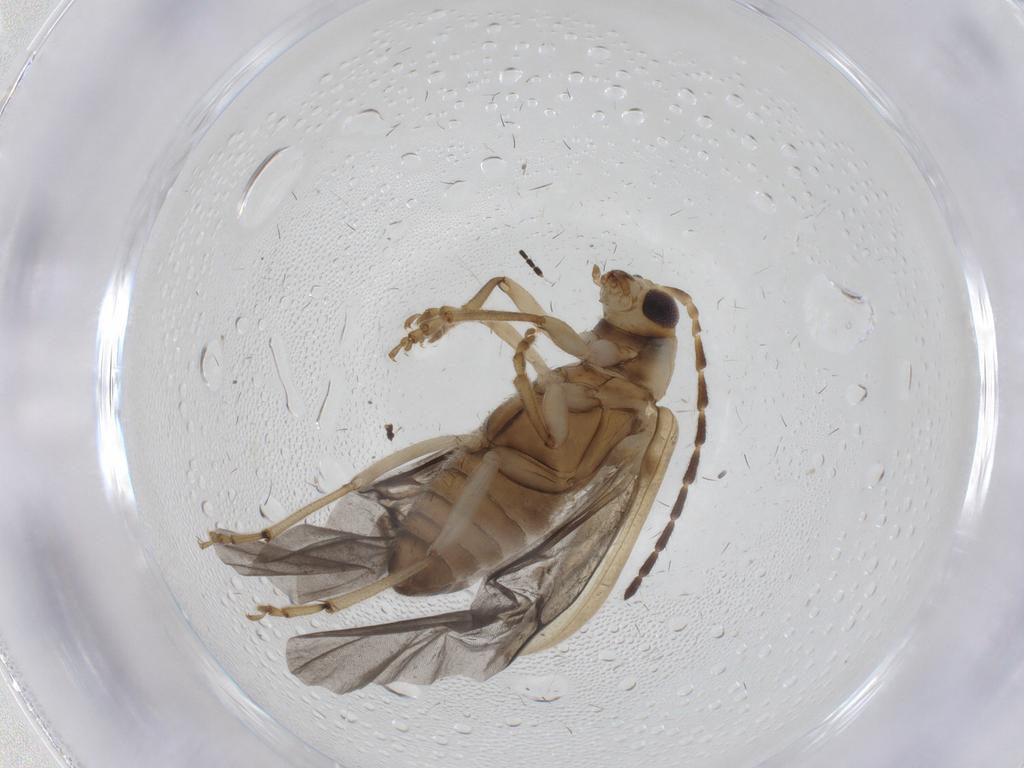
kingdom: Animalia
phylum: Arthropoda
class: Insecta
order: Coleoptera
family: Chrysomelidae
